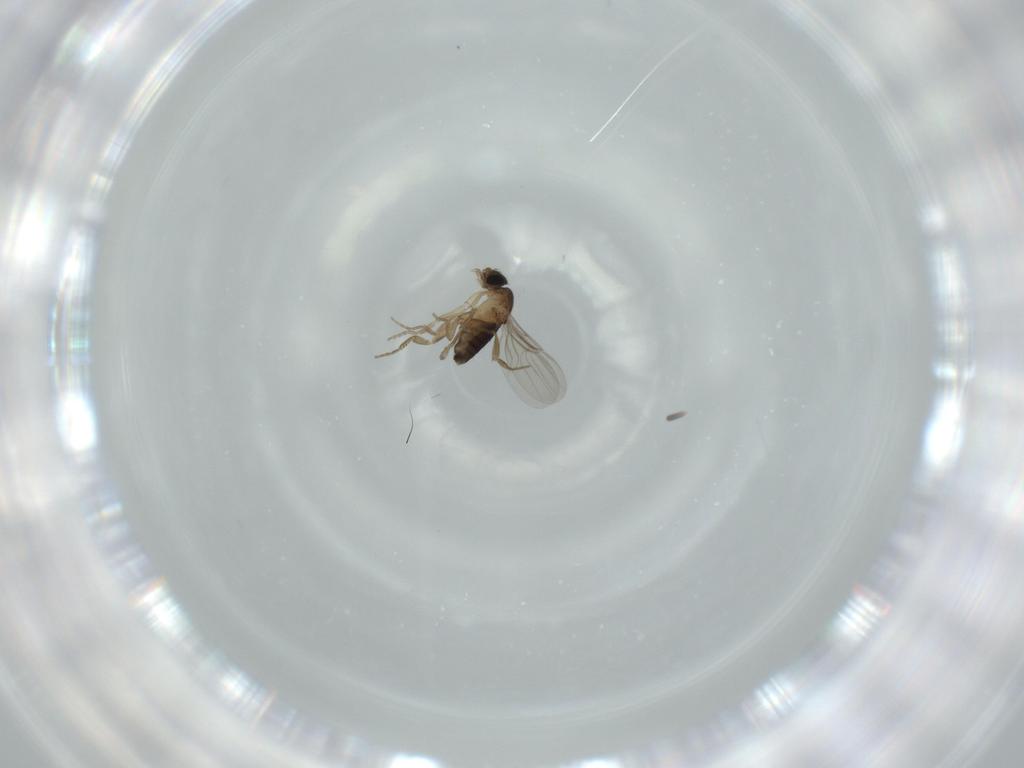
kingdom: Animalia
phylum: Arthropoda
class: Insecta
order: Diptera
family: Phoridae
